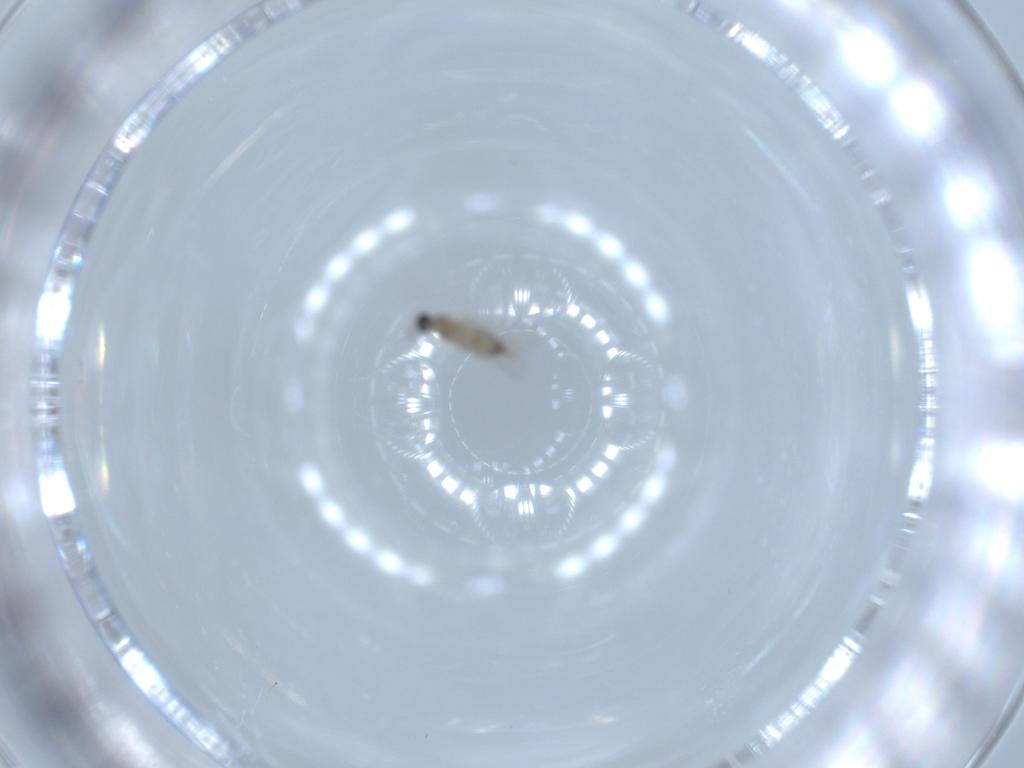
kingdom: Animalia
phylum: Arthropoda
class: Insecta
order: Diptera
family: Cecidomyiidae
